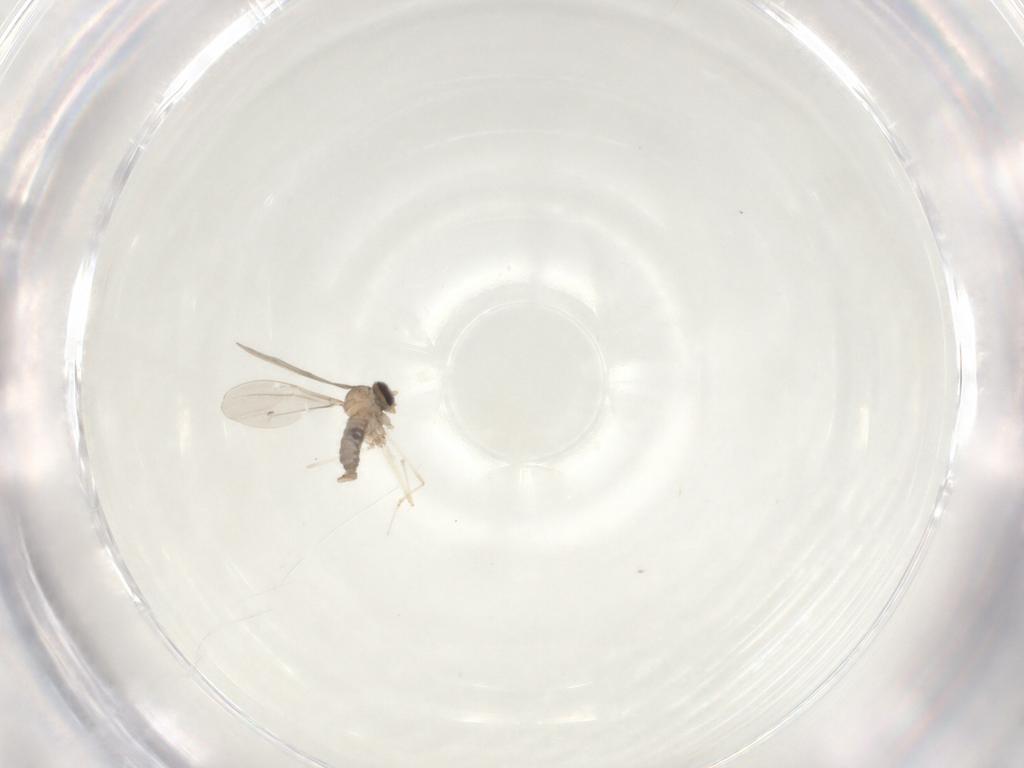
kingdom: Animalia
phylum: Arthropoda
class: Insecta
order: Diptera
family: Cecidomyiidae
